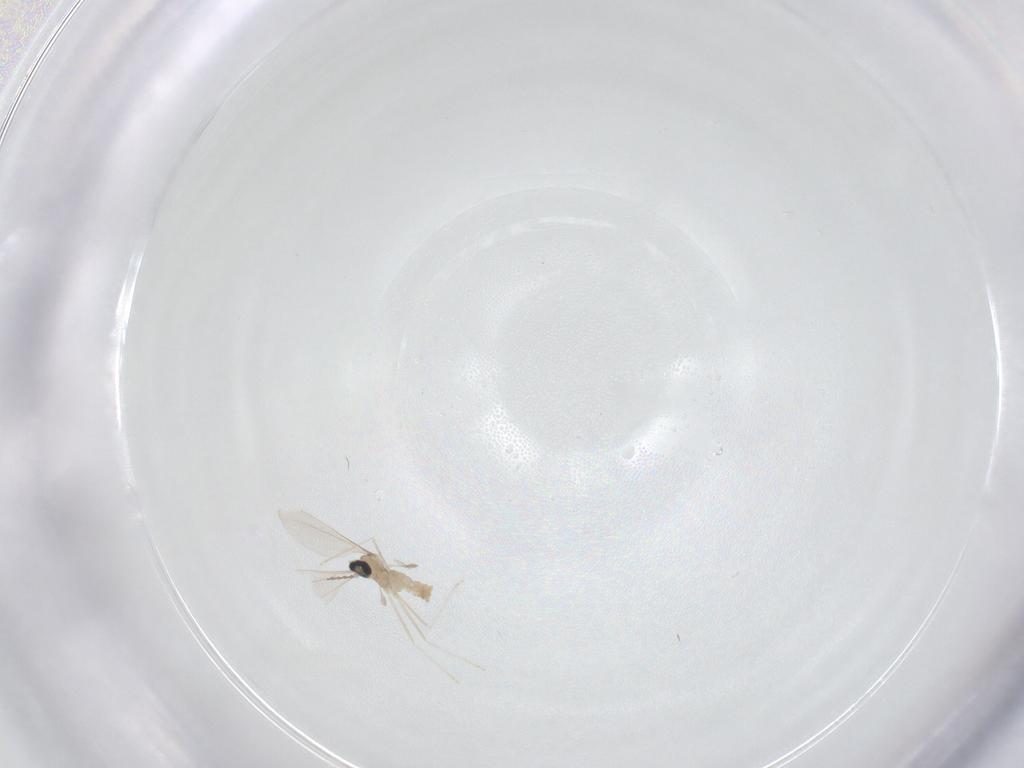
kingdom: Animalia
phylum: Arthropoda
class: Insecta
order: Diptera
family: Cecidomyiidae
